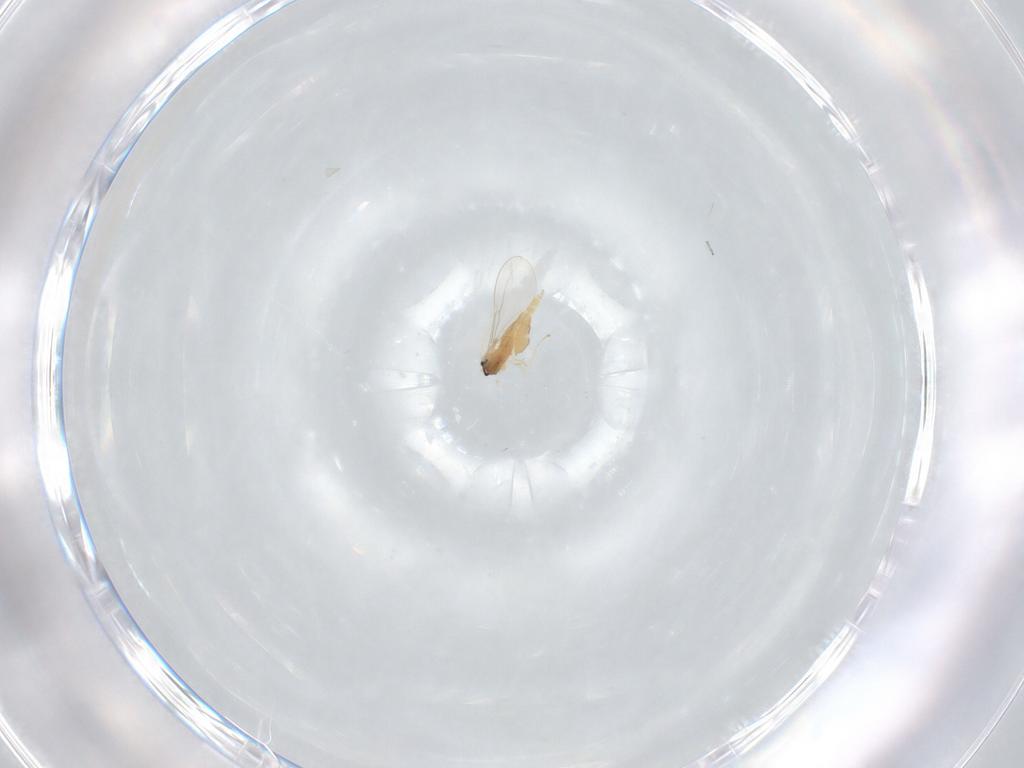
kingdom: Animalia
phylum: Arthropoda
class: Insecta
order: Diptera
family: Cecidomyiidae
